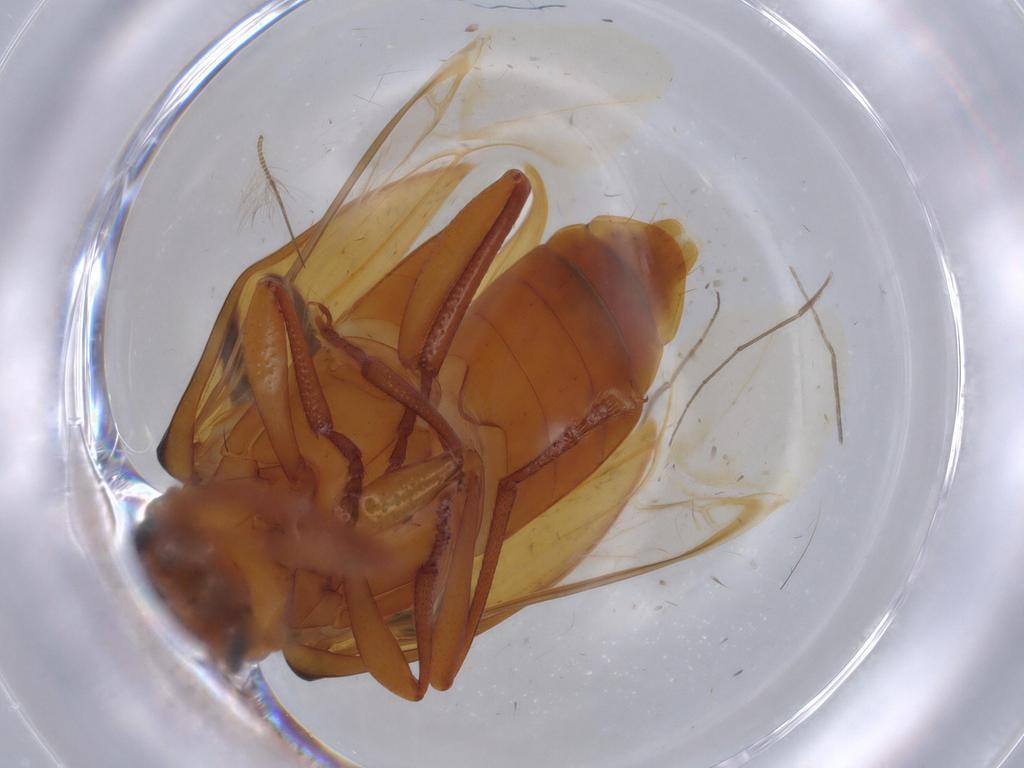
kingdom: Animalia
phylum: Arthropoda
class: Insecta
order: Coleoptera
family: Tenebrionidae
